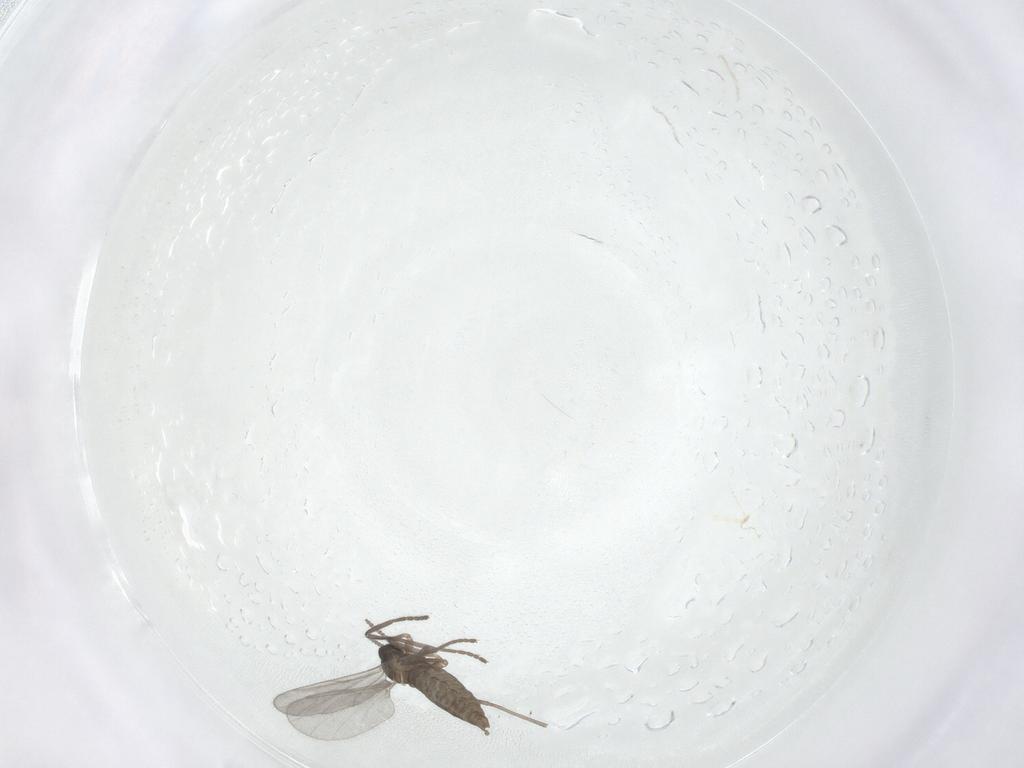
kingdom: Animalia
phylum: Arthropoda
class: Insecta
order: Diptera
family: Cecidomyiidae
